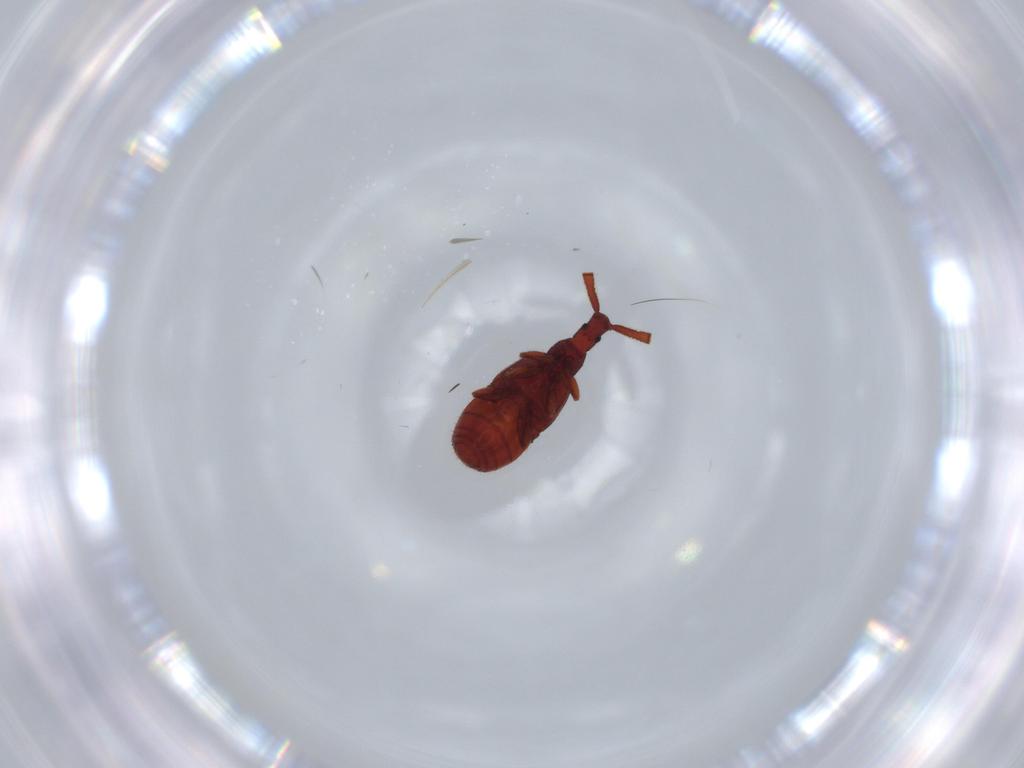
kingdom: Animalia
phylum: Arthropoda
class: Insecta
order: Coleoptera
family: Staphylinidae
